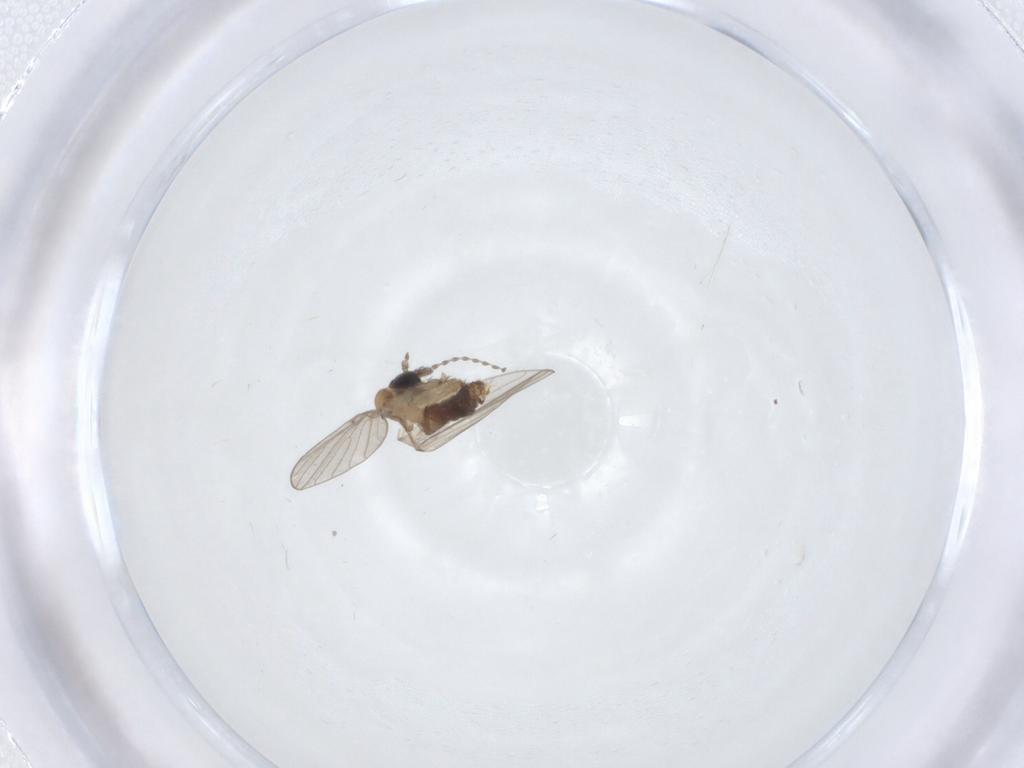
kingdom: Animalia
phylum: Arthropoda
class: Insecta
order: Diptera
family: Psychodidae
